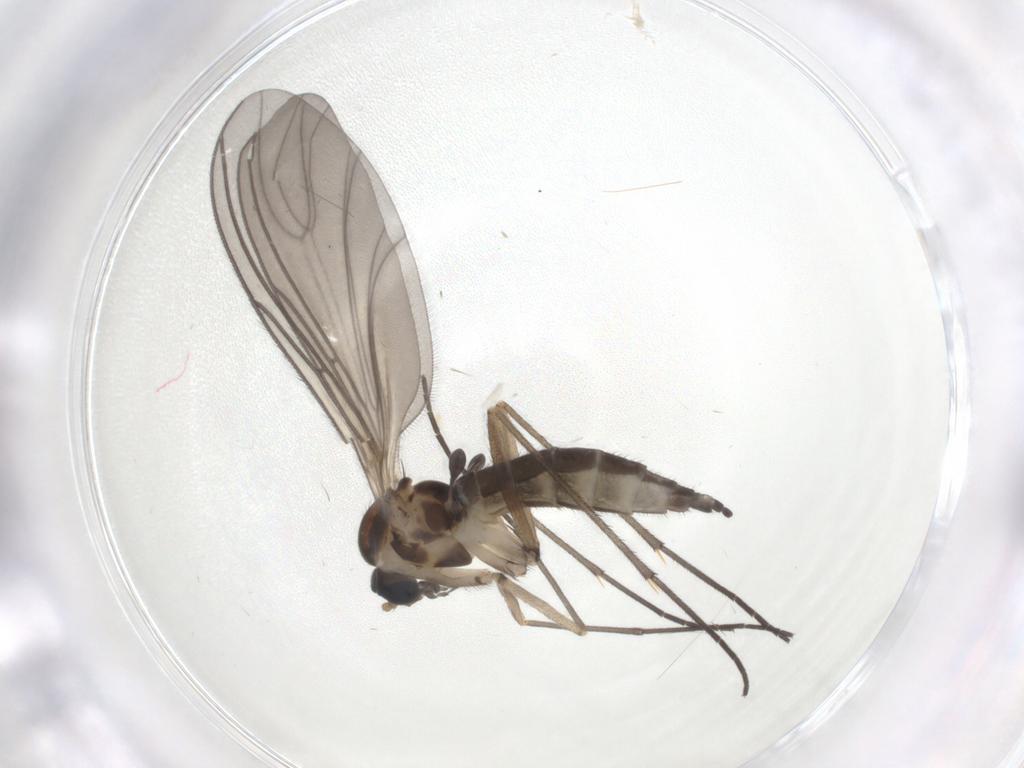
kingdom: Animalia
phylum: Arthropoda
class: Insecta
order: Diptera
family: Sciaridae
